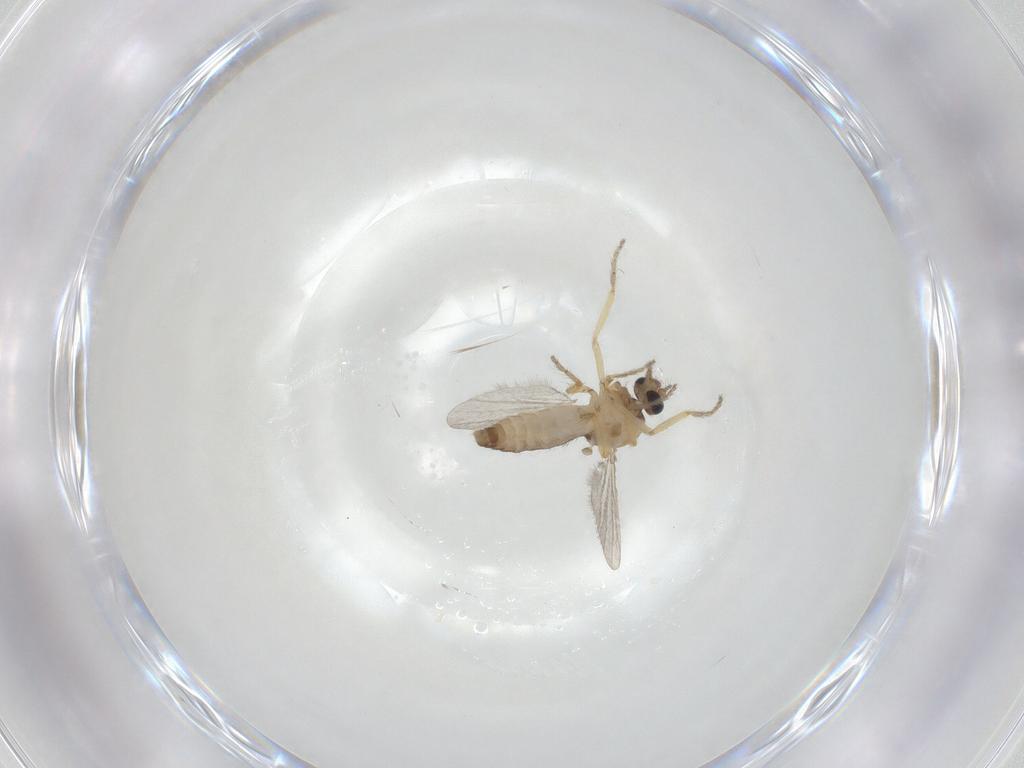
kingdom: Animalia
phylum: Arthropoda
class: Insecta
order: Diptera
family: Ceratopogonidae
